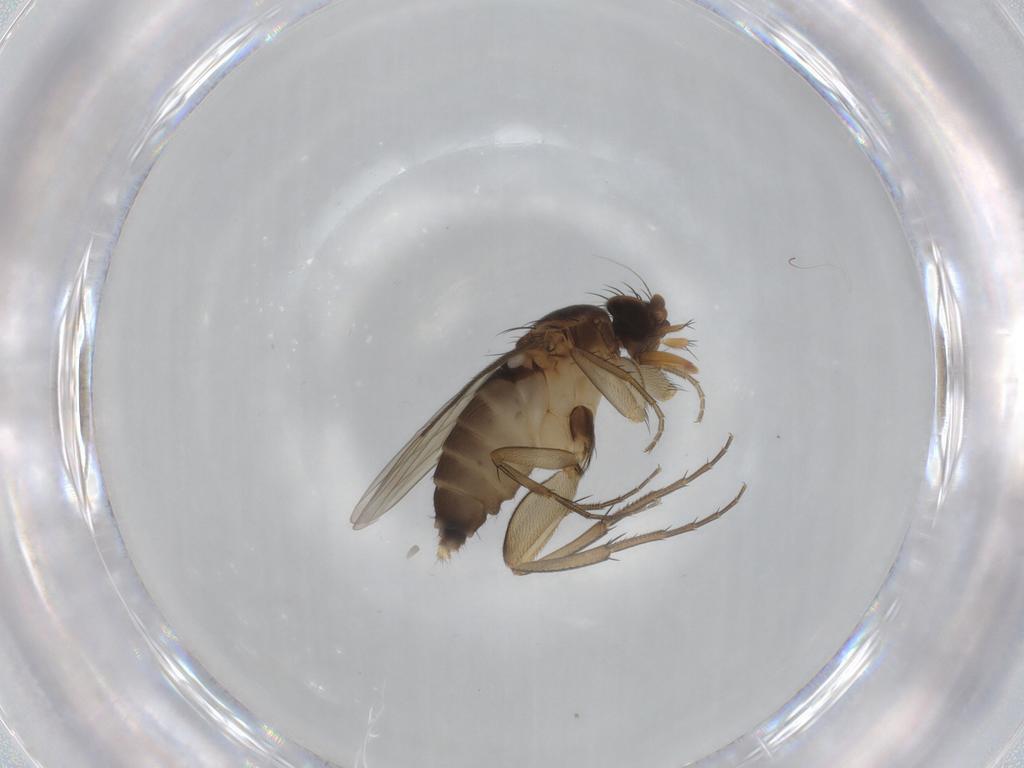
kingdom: Animalia
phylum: Arthropoda
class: Insecta
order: Diptera
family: Phoridae
